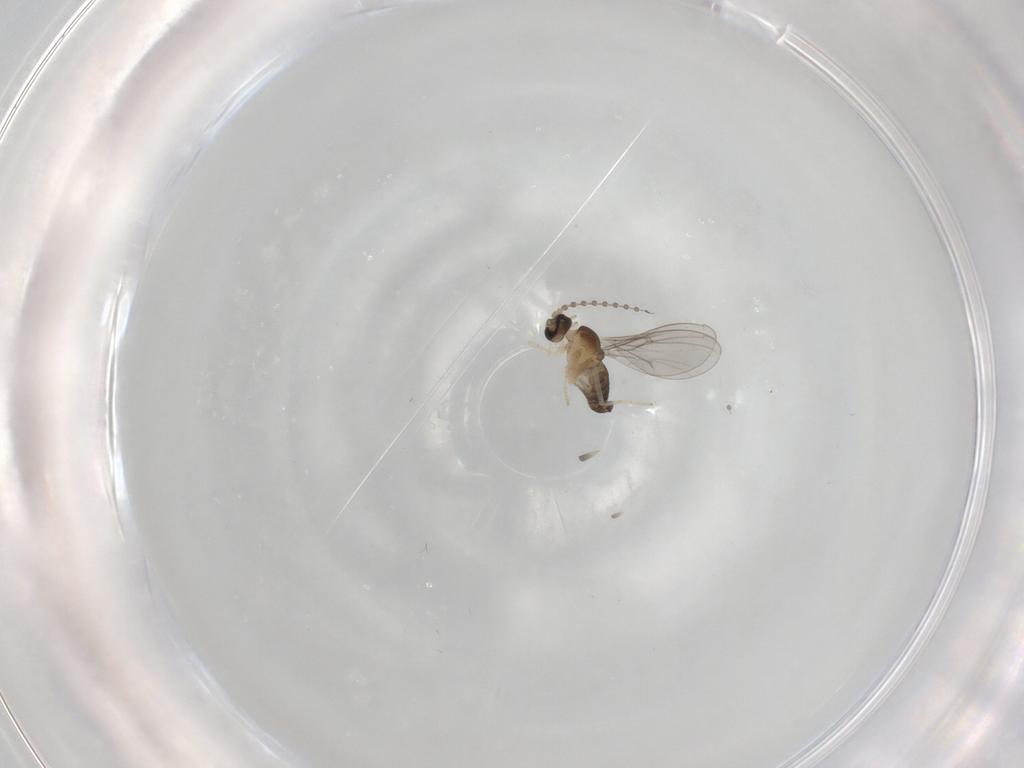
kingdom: Animalia
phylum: Arthropoda
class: Insecta
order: Diptera
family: Cecidomyiidae
